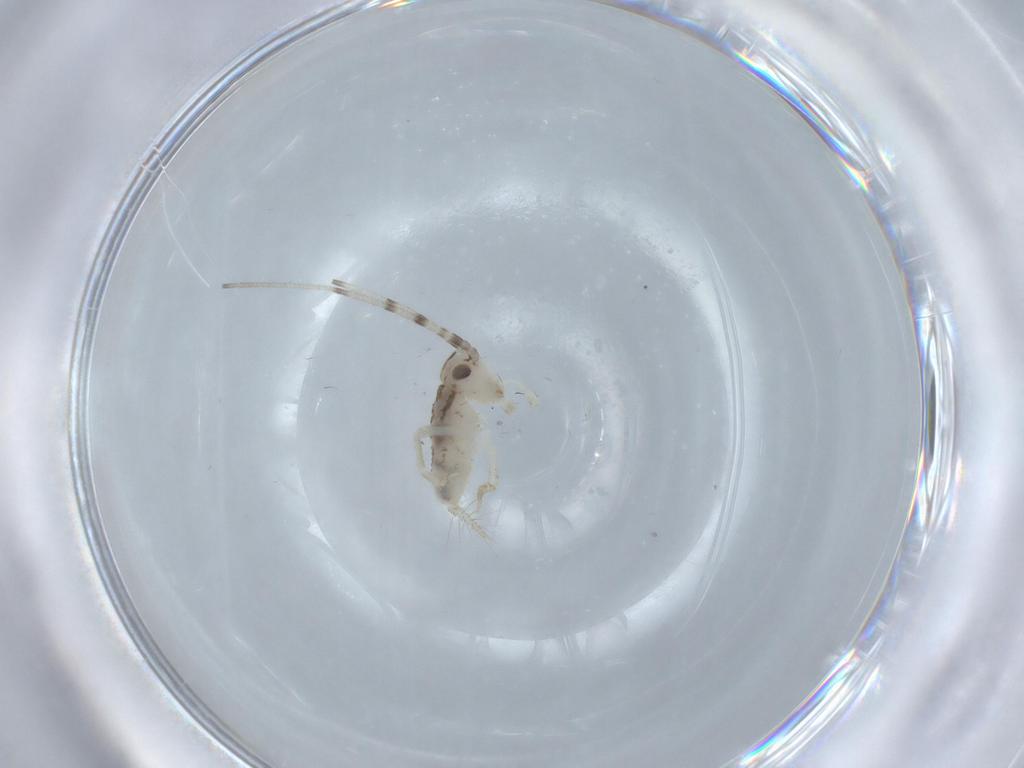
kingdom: Animalia
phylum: Arthropoda
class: Insecta
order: Orthoptera
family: Trigonidiidae
